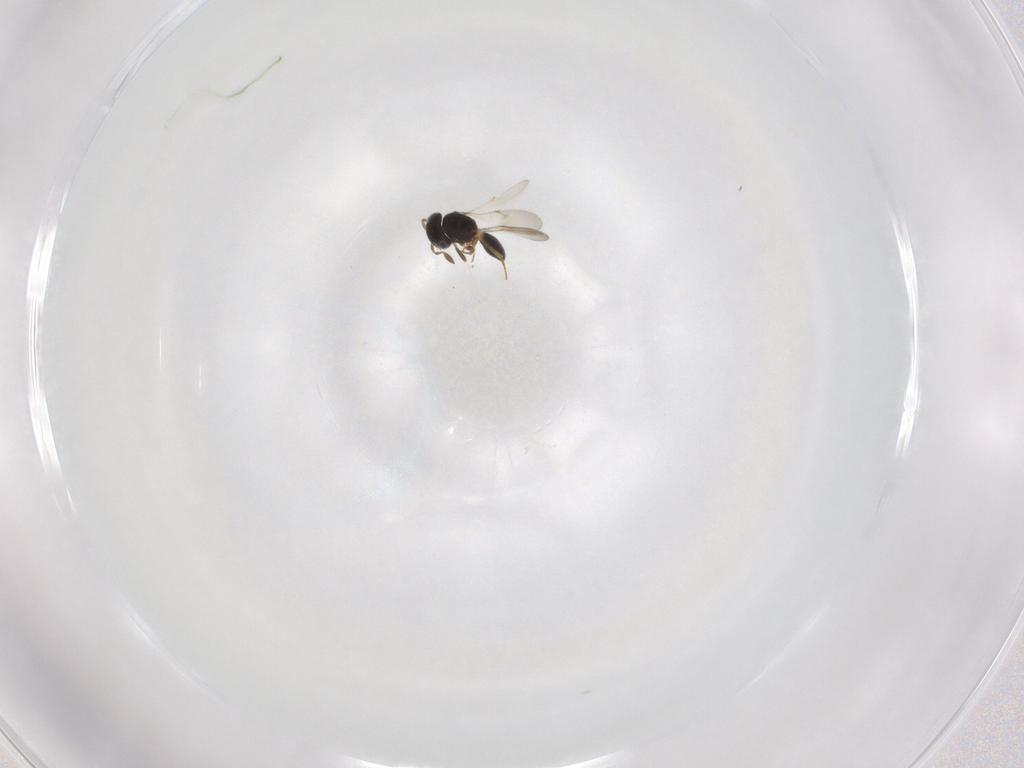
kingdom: Animalia
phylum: Arthropoda
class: Insecta
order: Hymenoptera
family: Scelionidae
